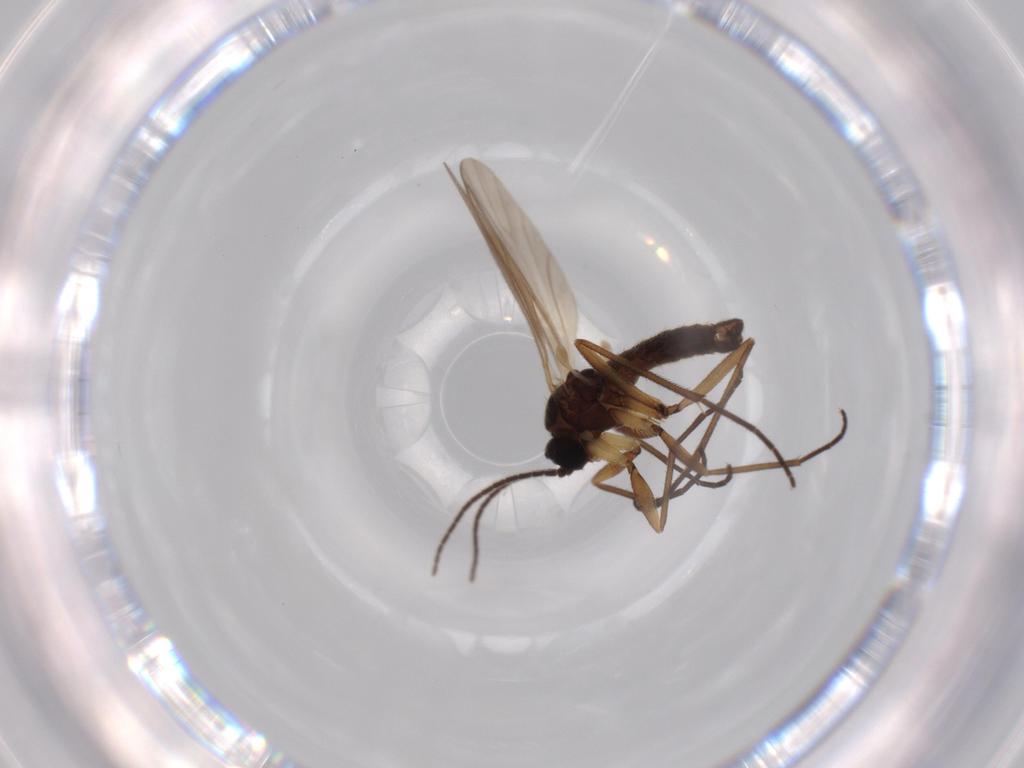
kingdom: Animalia
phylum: Arthropoda
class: Insecta
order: Diptera
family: Sciaridae
